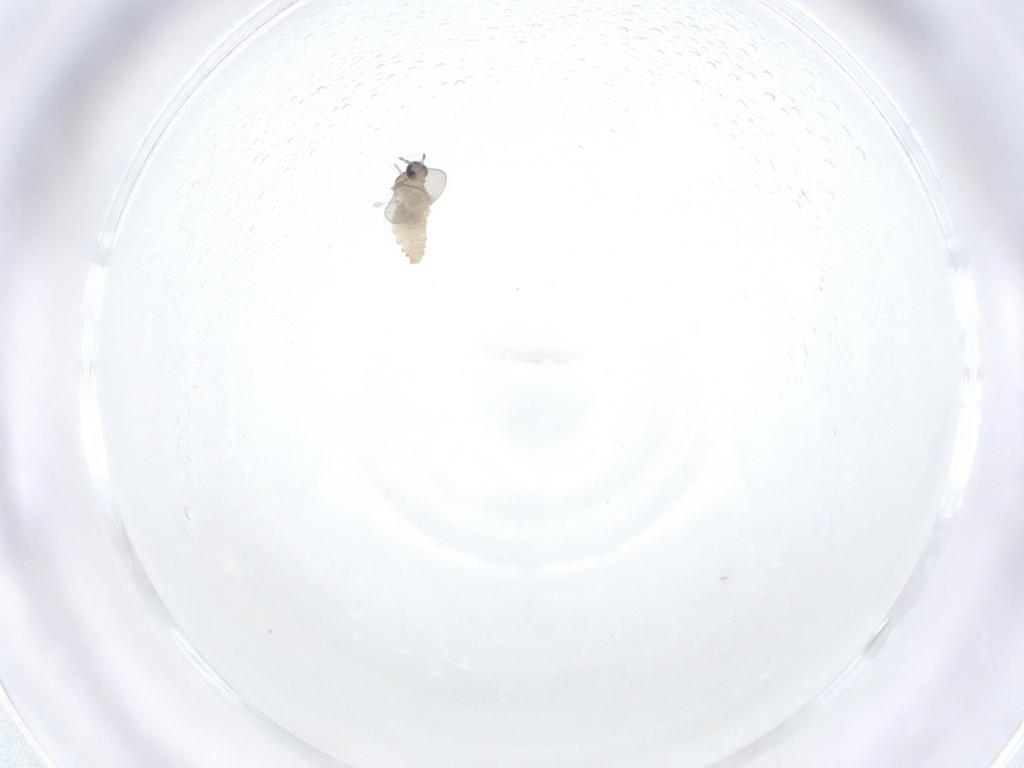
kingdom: Animalia
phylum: Arthropoda
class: Insecta
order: Diptera
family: Cecidomyiidae
